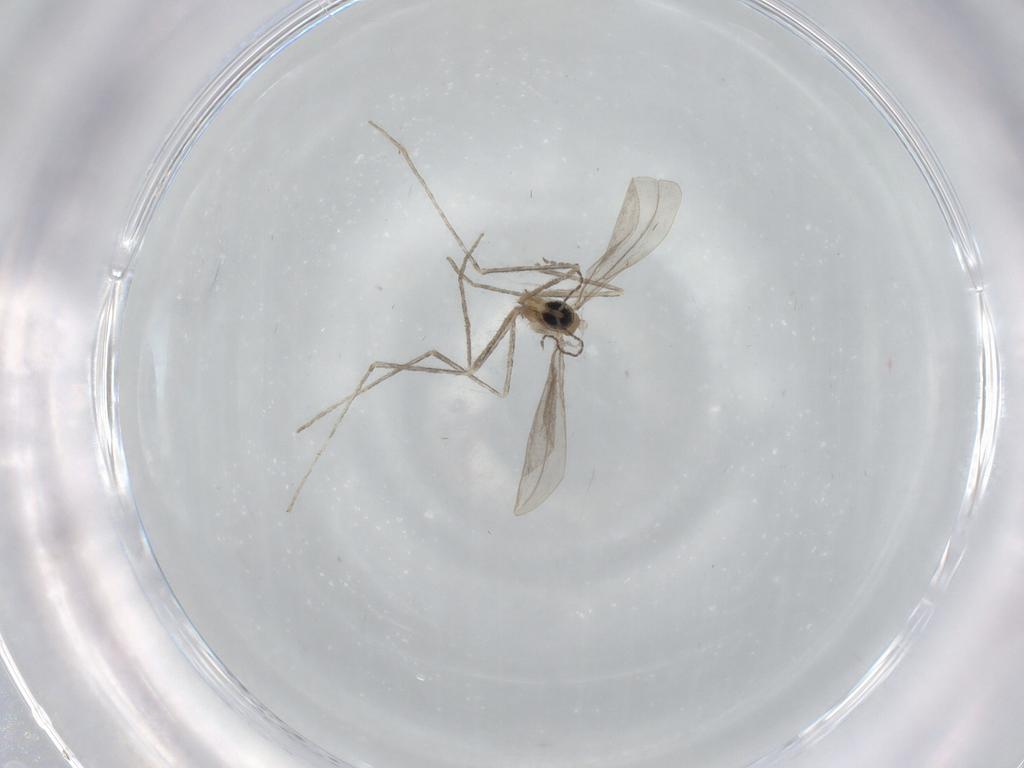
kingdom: Animalia
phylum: Arthropoda
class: Insecta
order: Diptera
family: Cecidomyiidae
